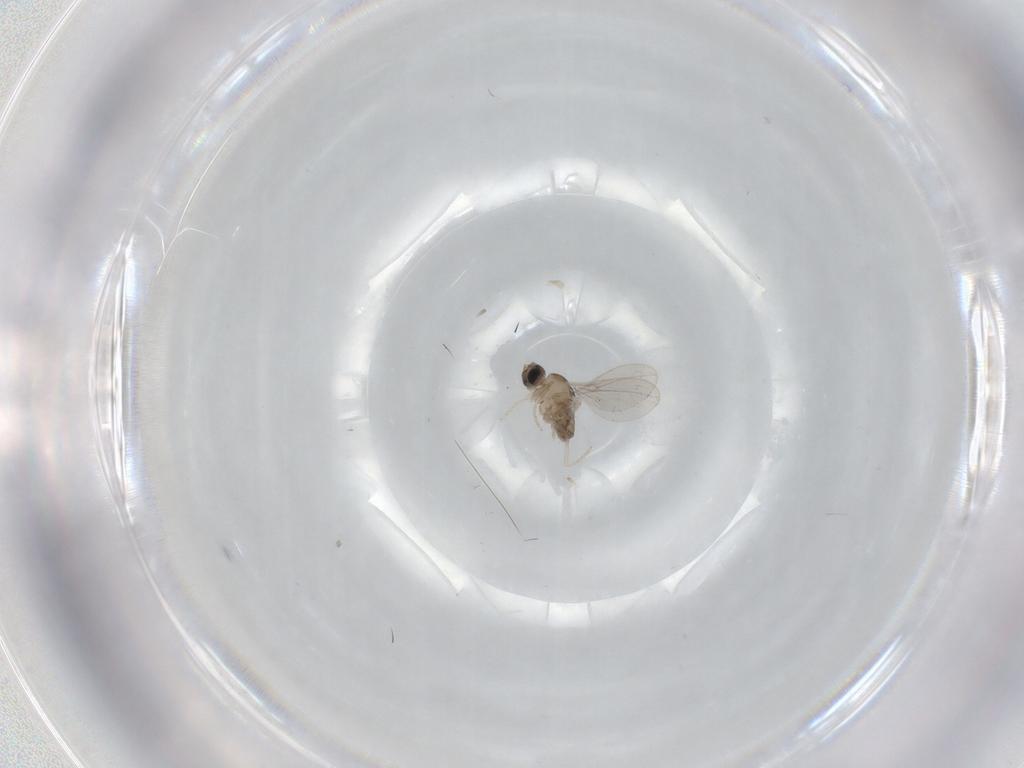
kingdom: Animalia
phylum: Arthropoda
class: Insecta
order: Diptera
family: Cecidomyiidae
